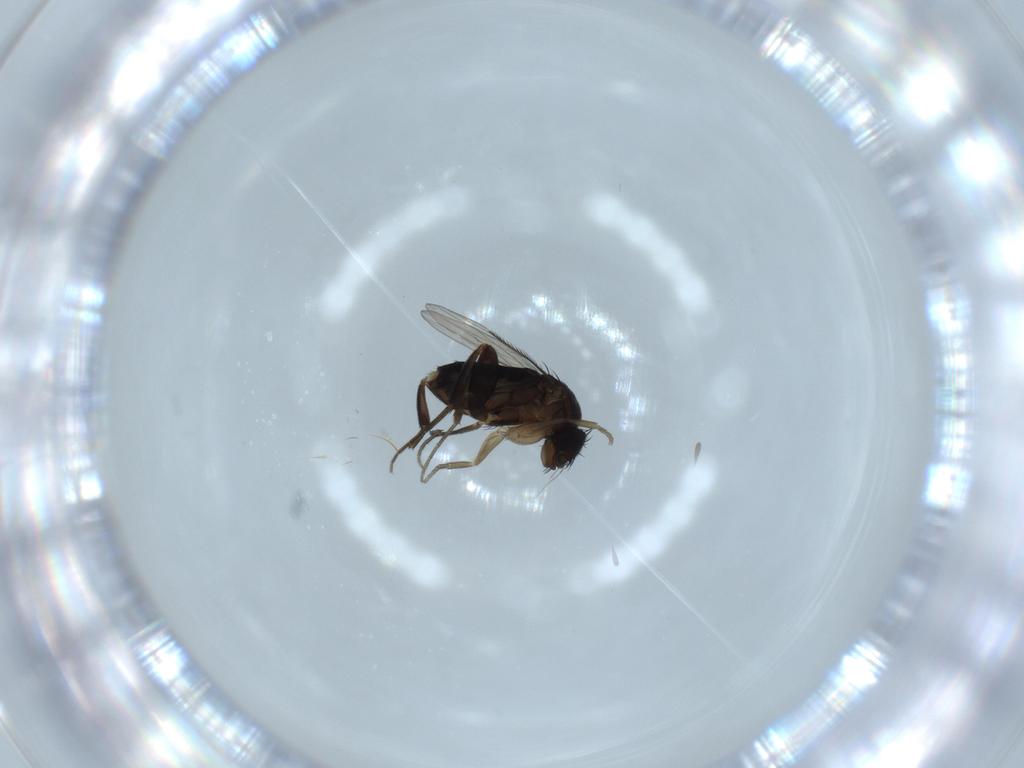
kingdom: Animalia
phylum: Arthropoda
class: Insecta
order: Diptera
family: Phoridae
